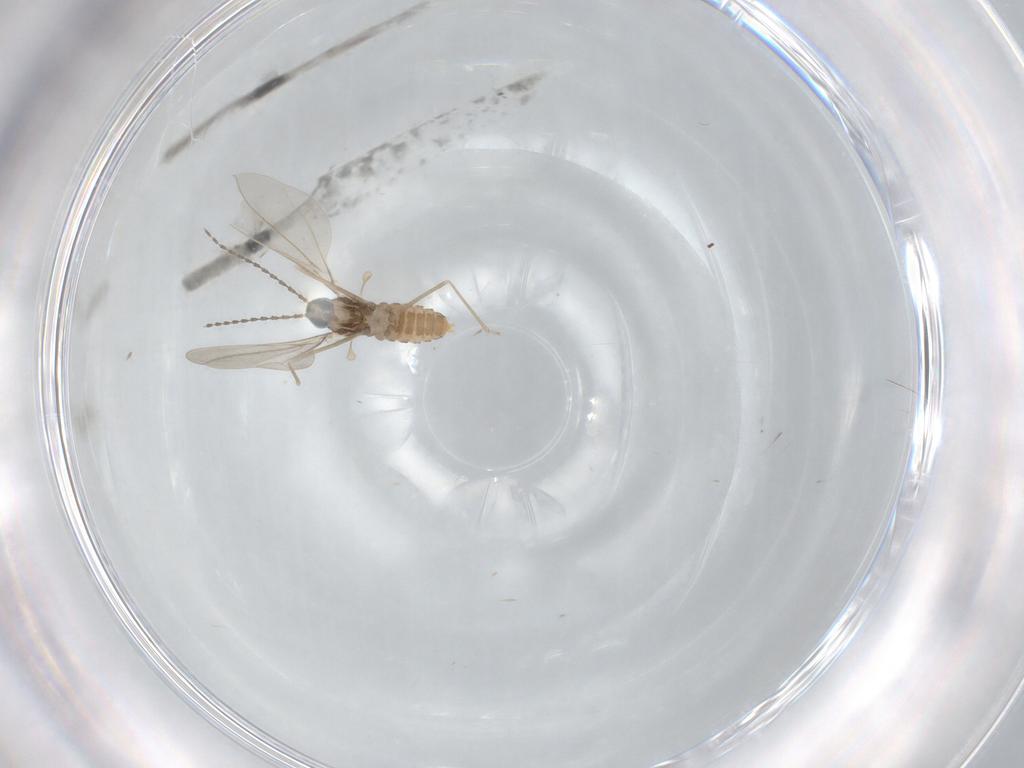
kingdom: Animalia
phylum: Arthropoda
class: Insecta
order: Diptera
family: Cecidomyiidae
